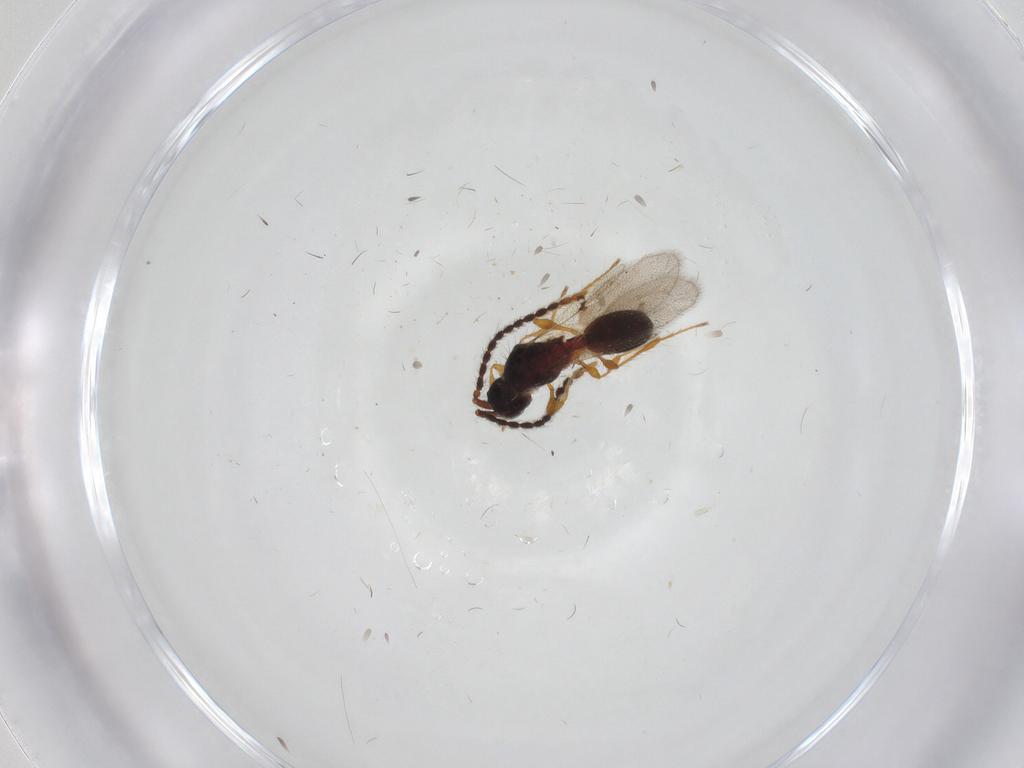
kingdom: Animalia
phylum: Arthropoda
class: Insecta
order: Hymenoptera
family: Diapriidae
